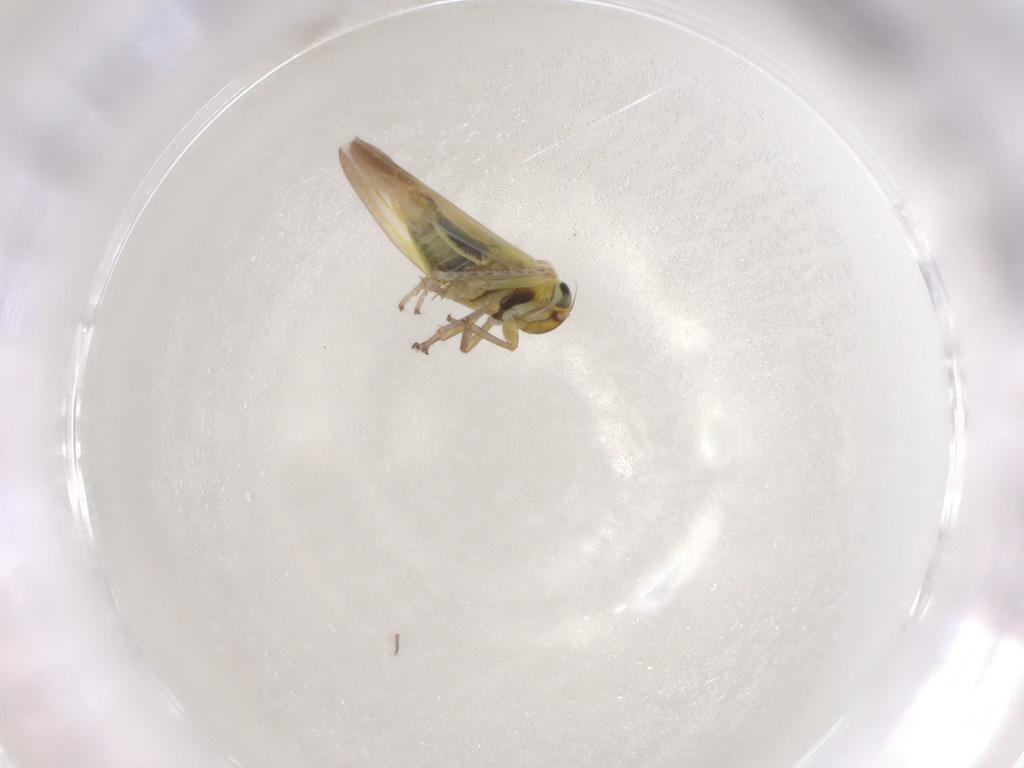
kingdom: Animalia
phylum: Arthropoda
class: Insecta
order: Hemiptera
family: Cicadellidae
